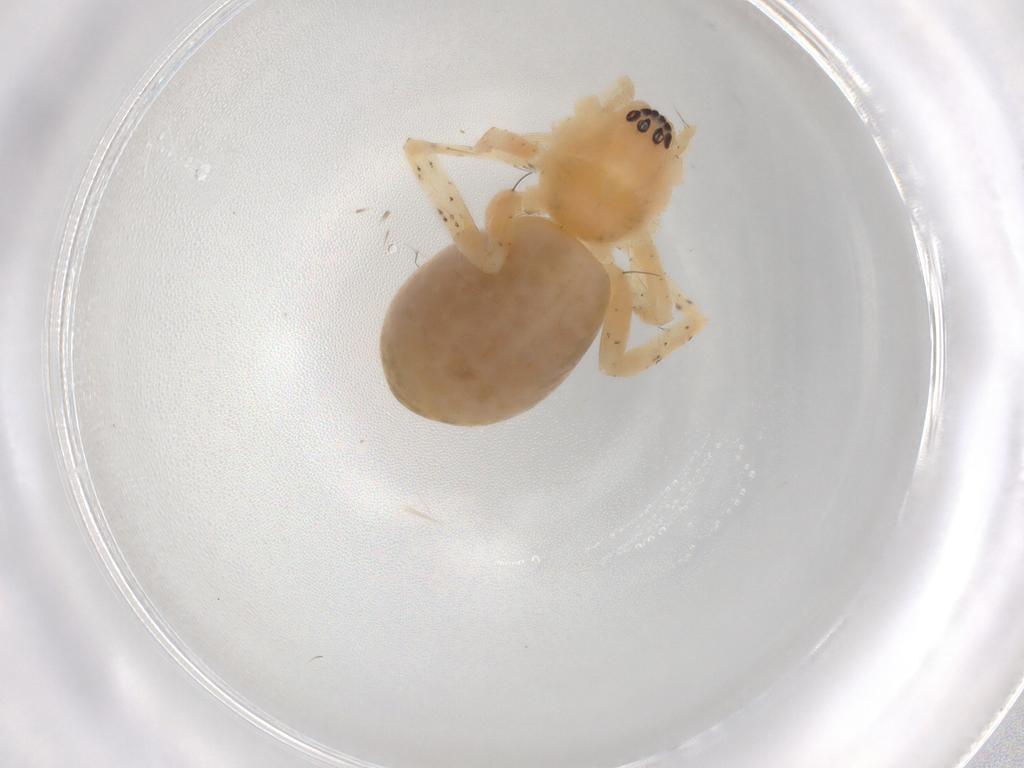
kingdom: Animalia
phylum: Arthropoda
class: Arachnida
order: Araneae
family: Anyphaenidae
